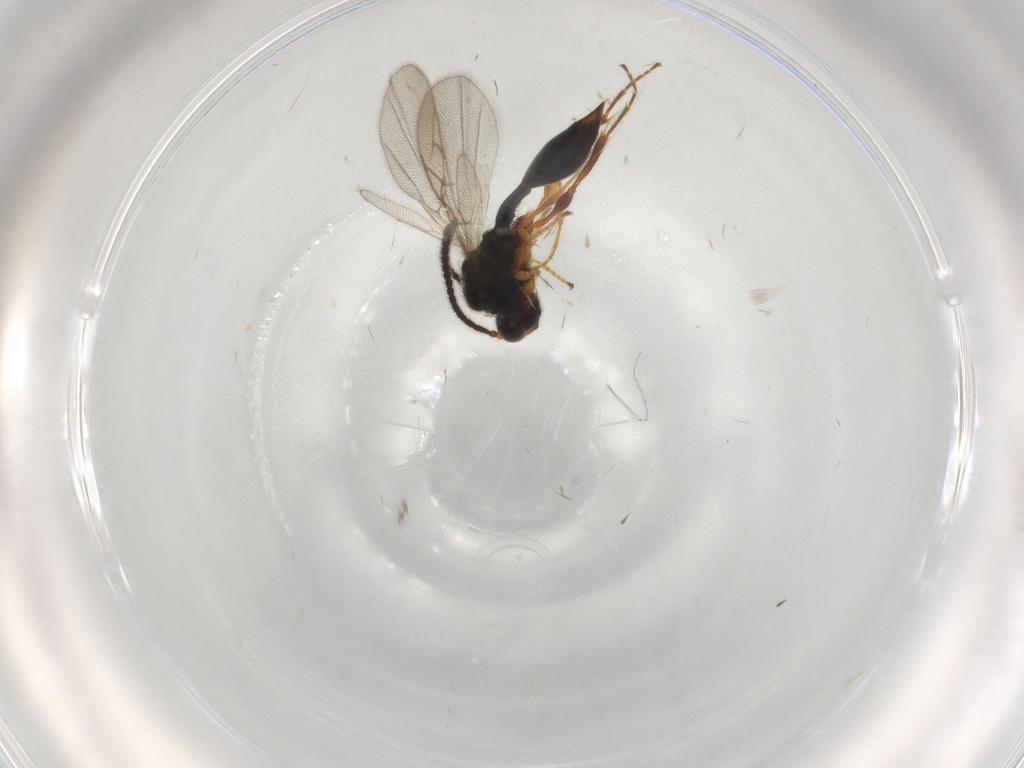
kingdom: Animalia
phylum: Arthropoda
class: Insecta
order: Hymenoptera
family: Diapriidae
